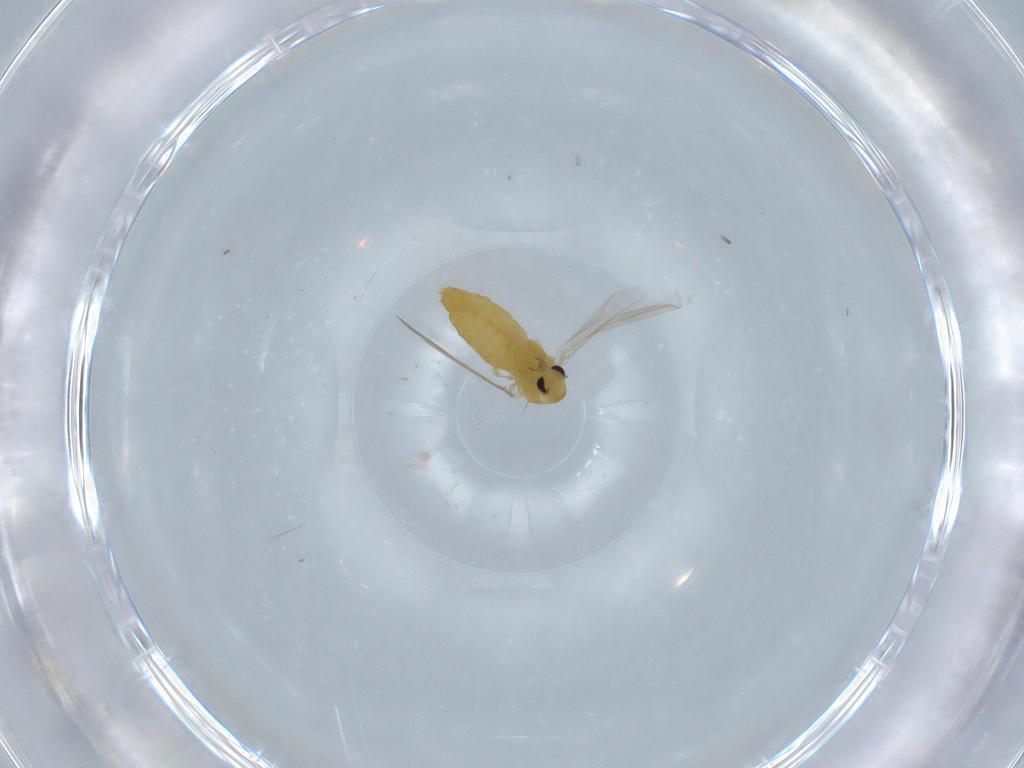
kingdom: Animalia
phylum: Arthropoda
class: Insecta
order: Diptera
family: Chironomidae
